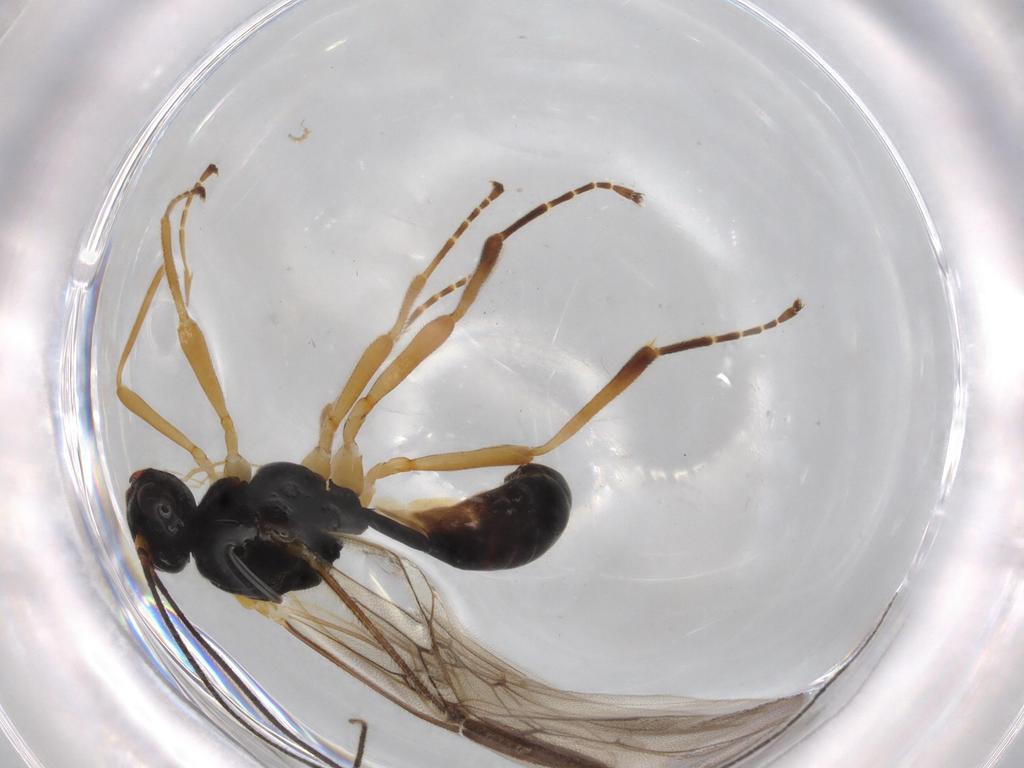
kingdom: Animalia
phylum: Arthropoda
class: Insecta
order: Hymenoptera
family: Braconidae
